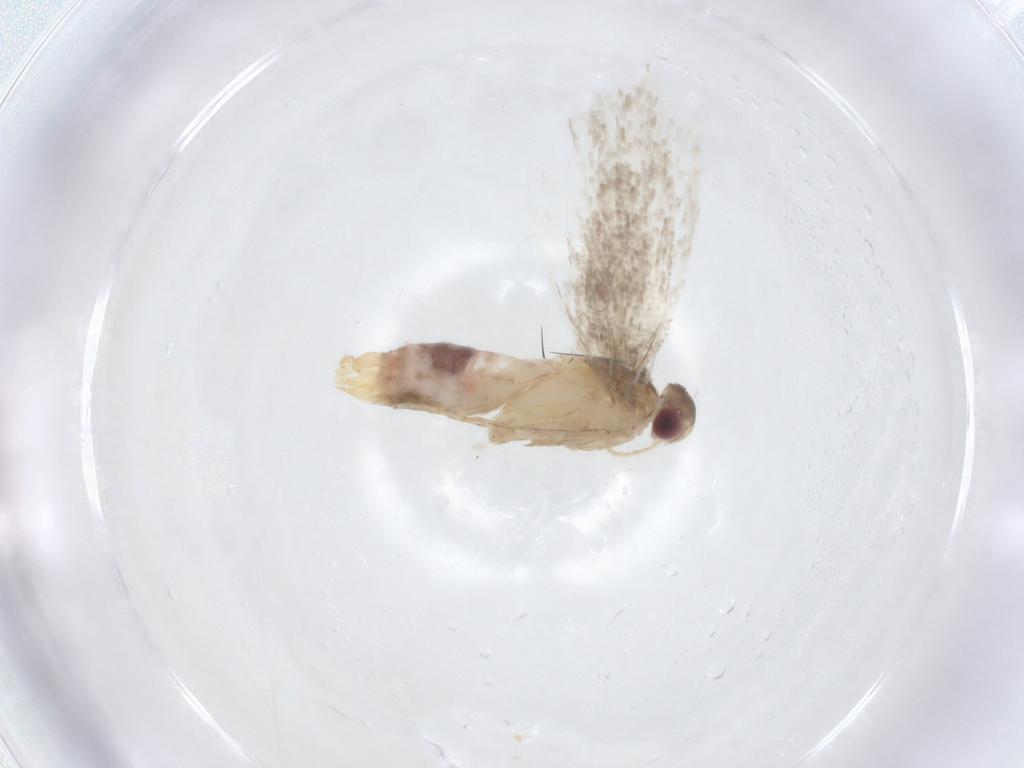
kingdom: Animalia
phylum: Arthropoda
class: Insecta
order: Lepidoptera
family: Gelechiidae
